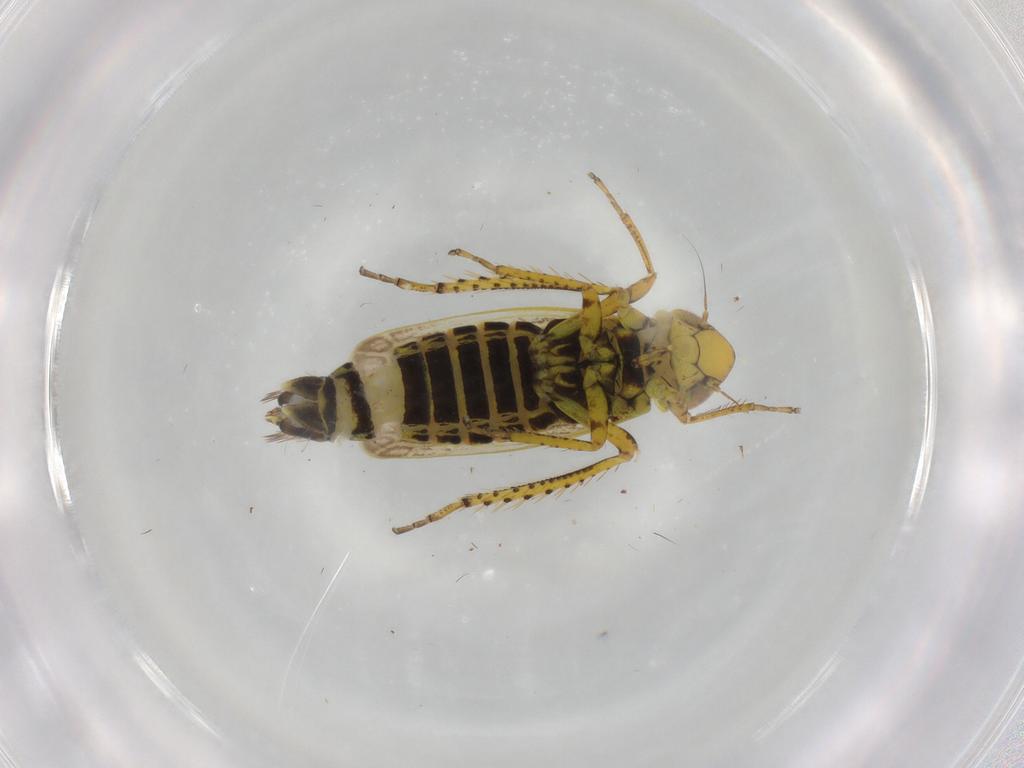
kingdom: Animalia
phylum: Arthropoda
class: Insecta
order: Hemiptera
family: Cicadellidae
